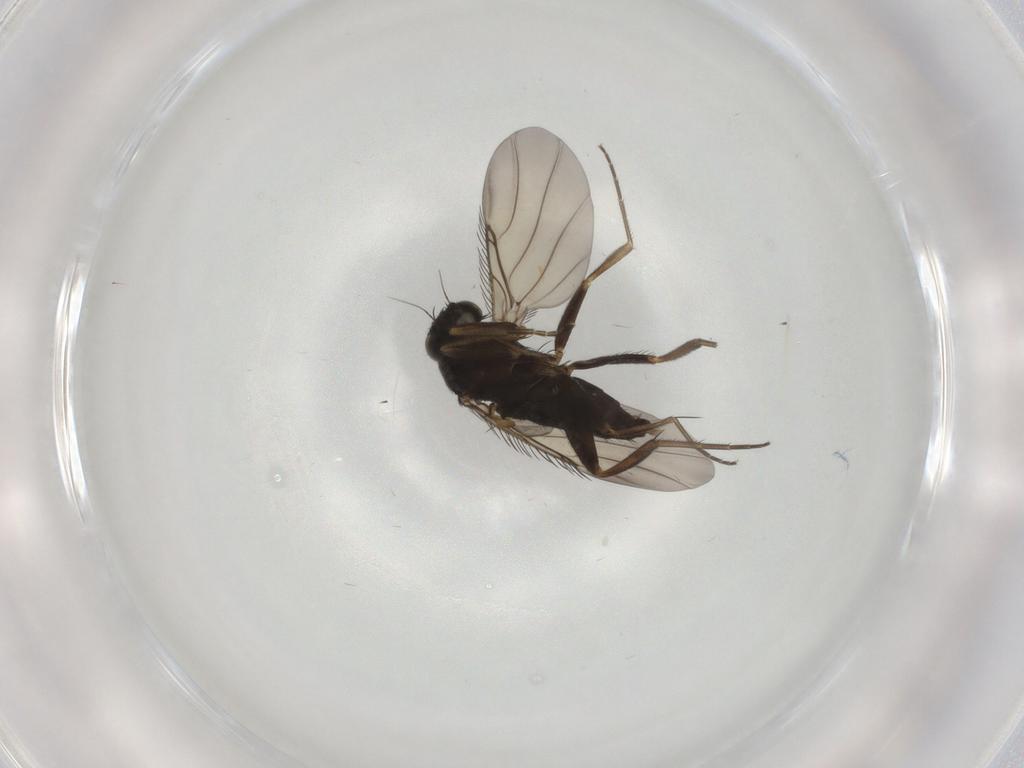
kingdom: Animalia
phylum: Arthropoda
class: Insecta
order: Diptera
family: Phoridae
